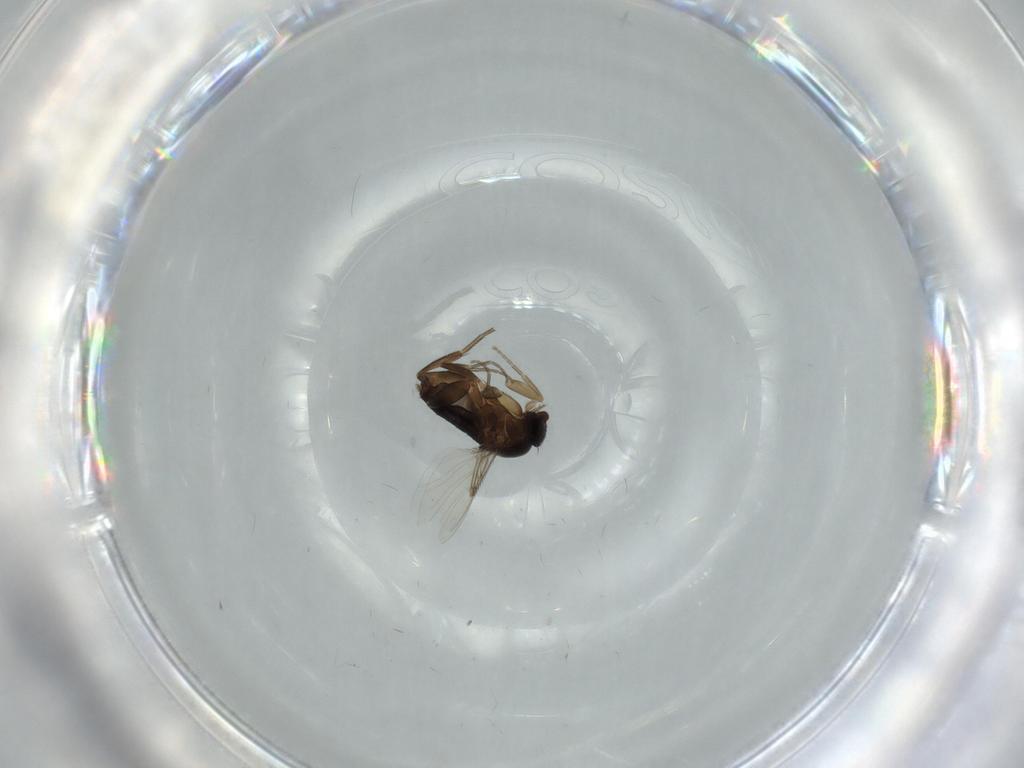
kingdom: Animalia
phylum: Arthropoda
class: Insecta
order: Diptera
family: Phoridae
